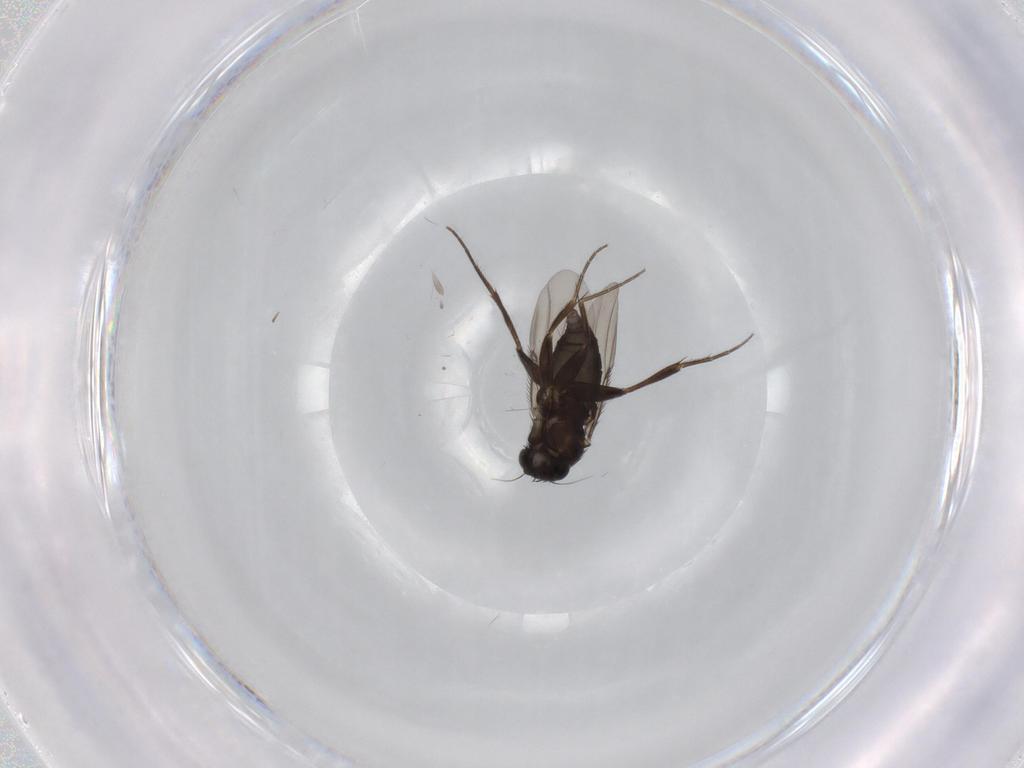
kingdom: Animalia
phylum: Arthropoda
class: Insecta
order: Diptera
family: Phoridae
